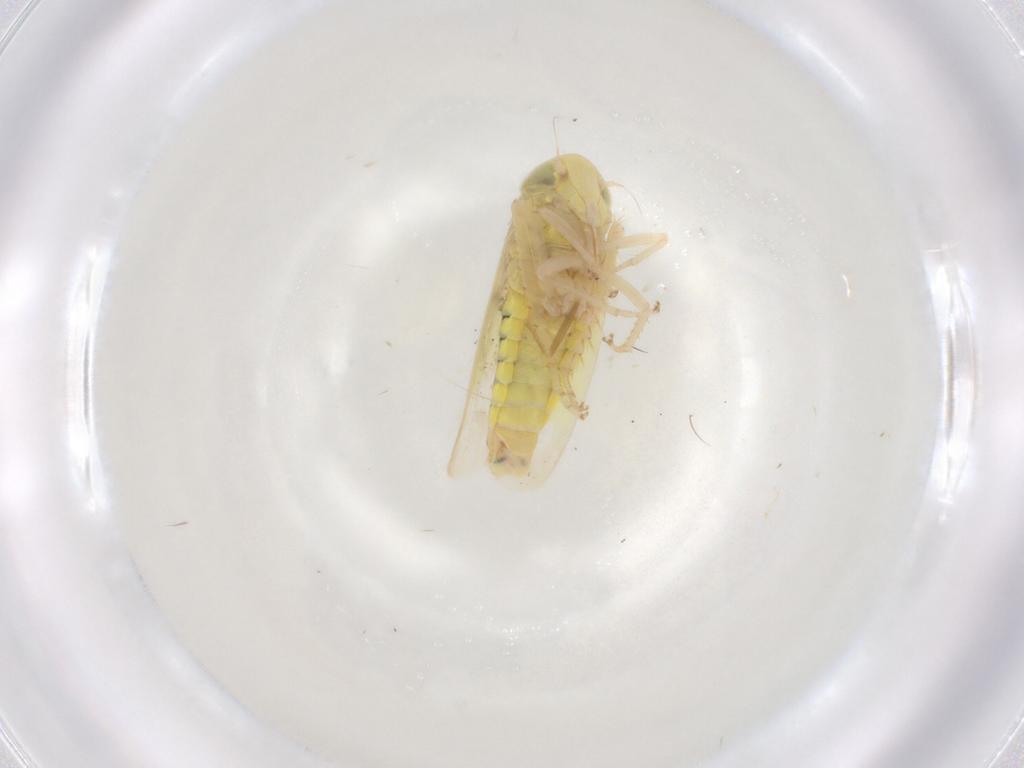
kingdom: Animalia
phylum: Arthropoda
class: Insecta
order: Hemiptera
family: Cicadellidae
